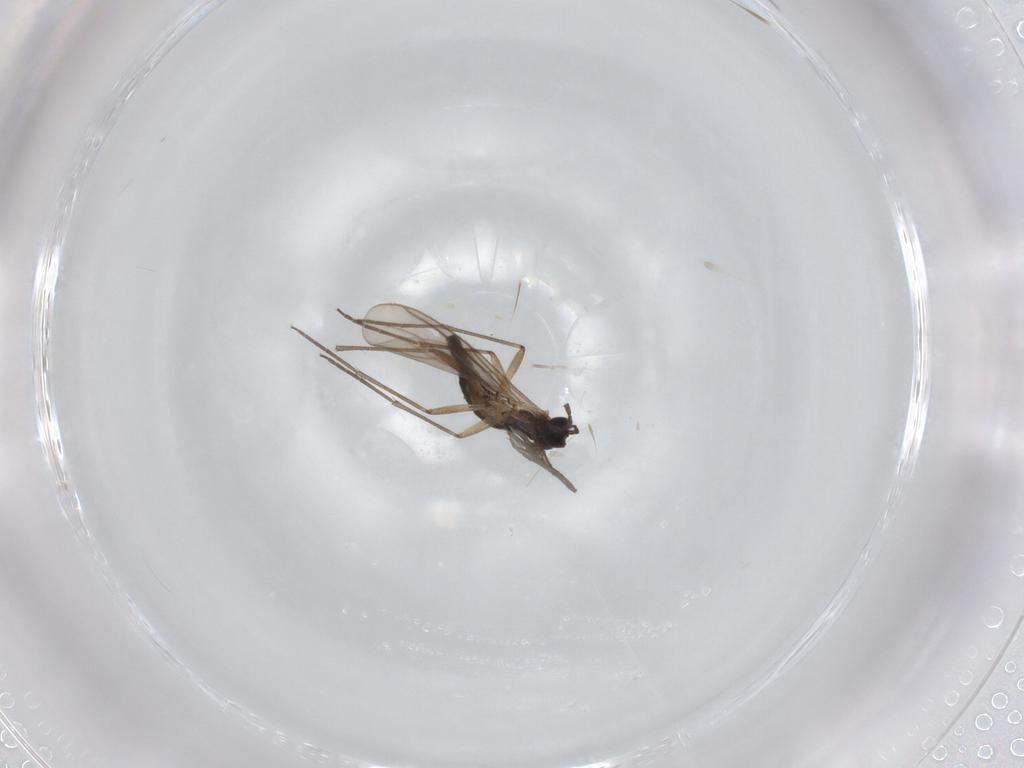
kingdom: Animalia
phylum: Arthropoda
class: Insecta
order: Diptera
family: Sciaridae
